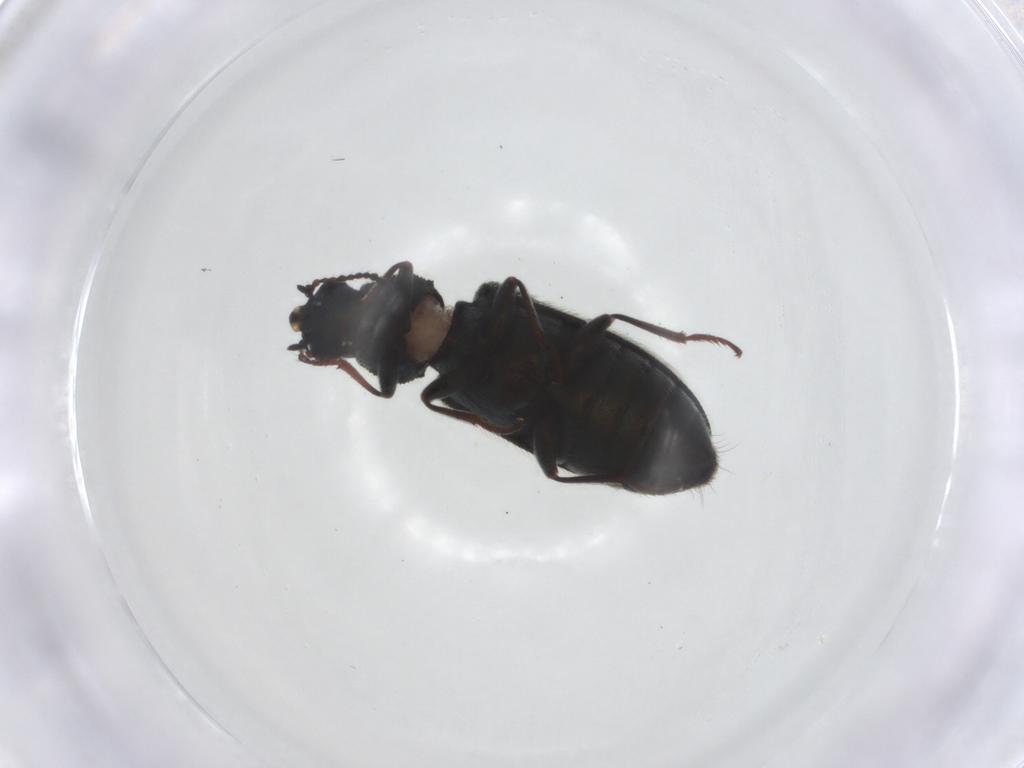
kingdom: Animalia
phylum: Arthropoda
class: Insecta
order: Coleoptera
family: Melyridae
